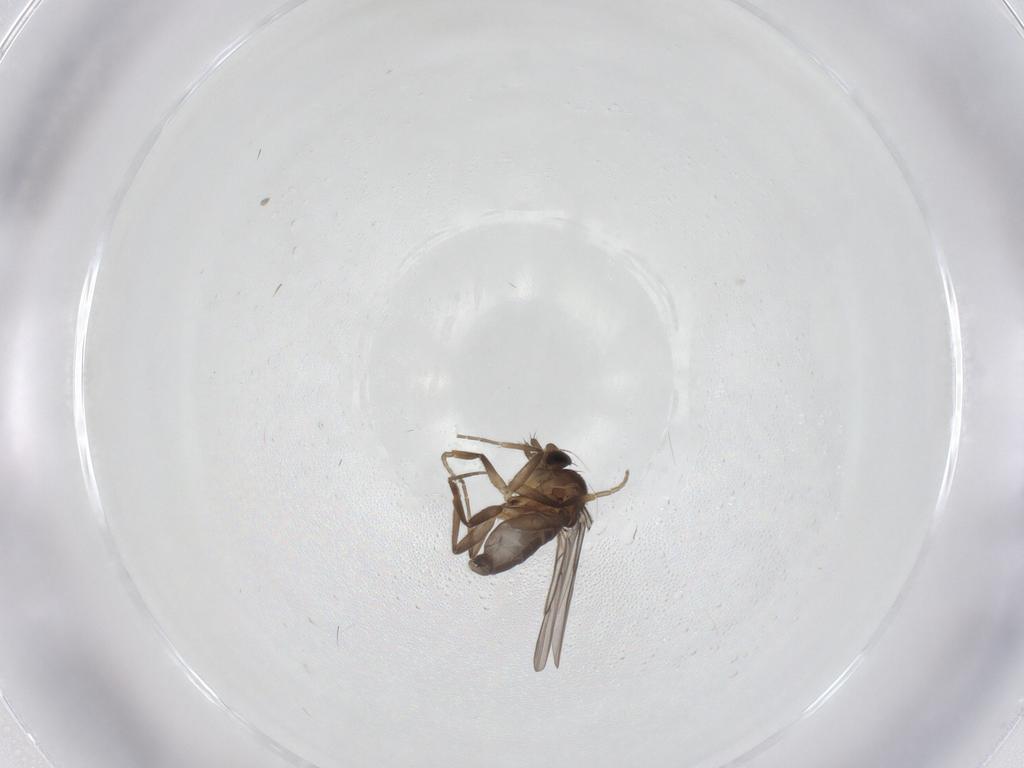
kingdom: Animalia
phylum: Arthropoda
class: Insecta
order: Diptera
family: Phoridae
